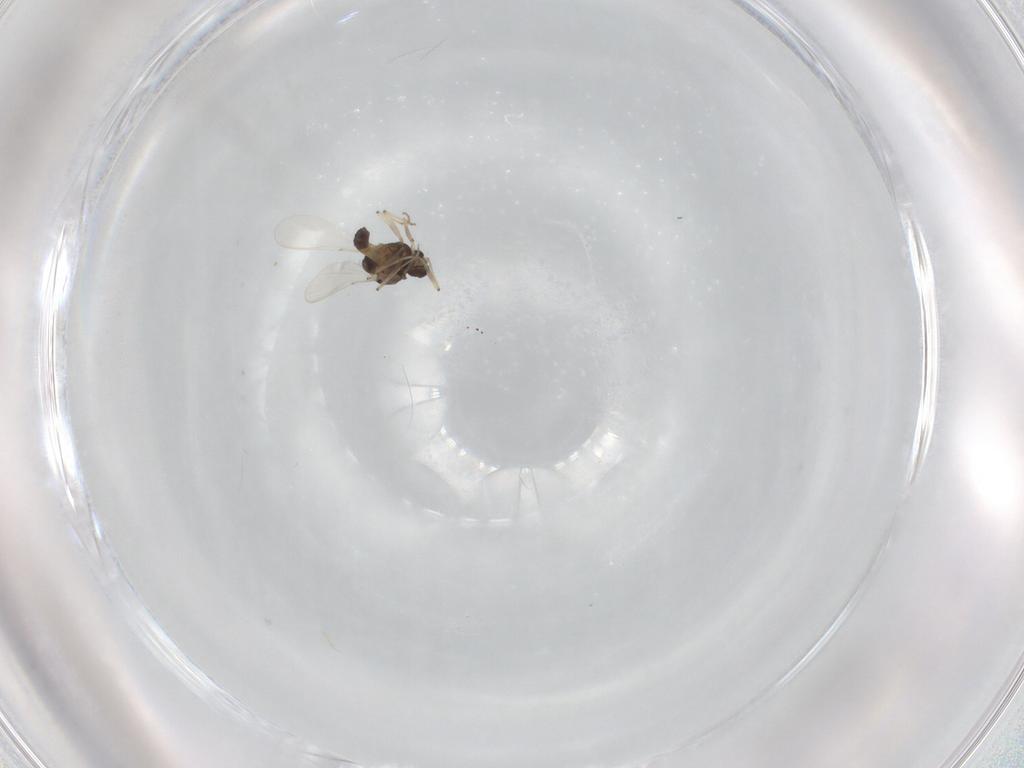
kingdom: Animalia
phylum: Arthropoda
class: Insecta
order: Diptera
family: Chironomidae
